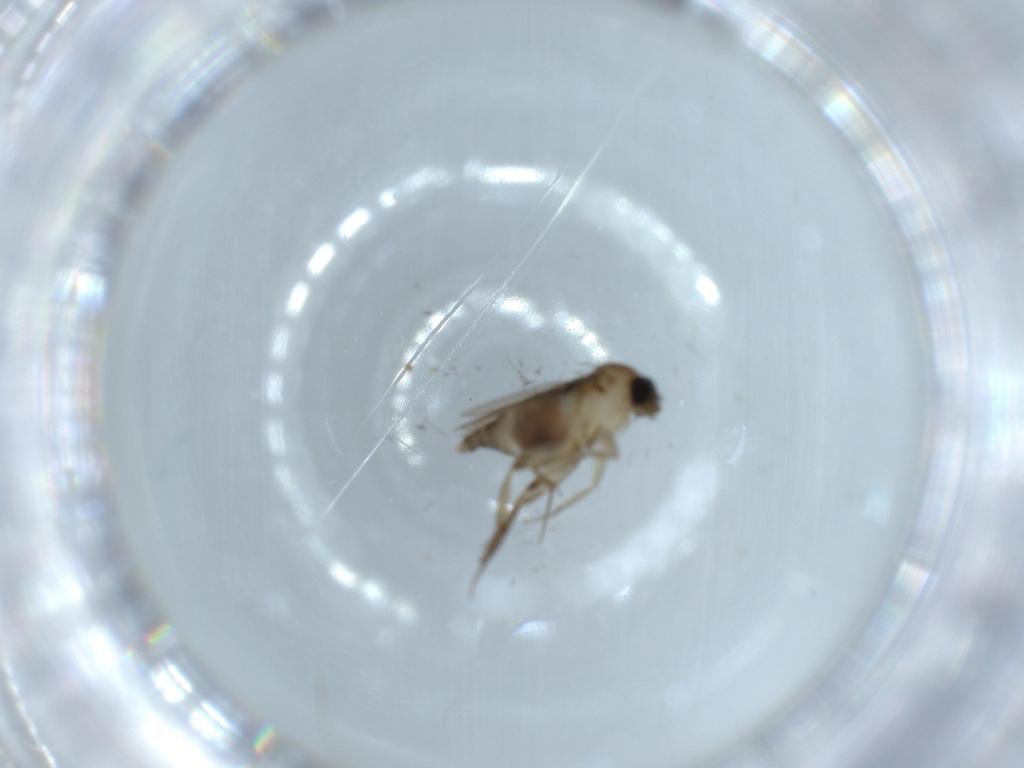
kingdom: Animalia
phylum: Arthropoda
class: Insecta
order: Diptera
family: Phoridae
